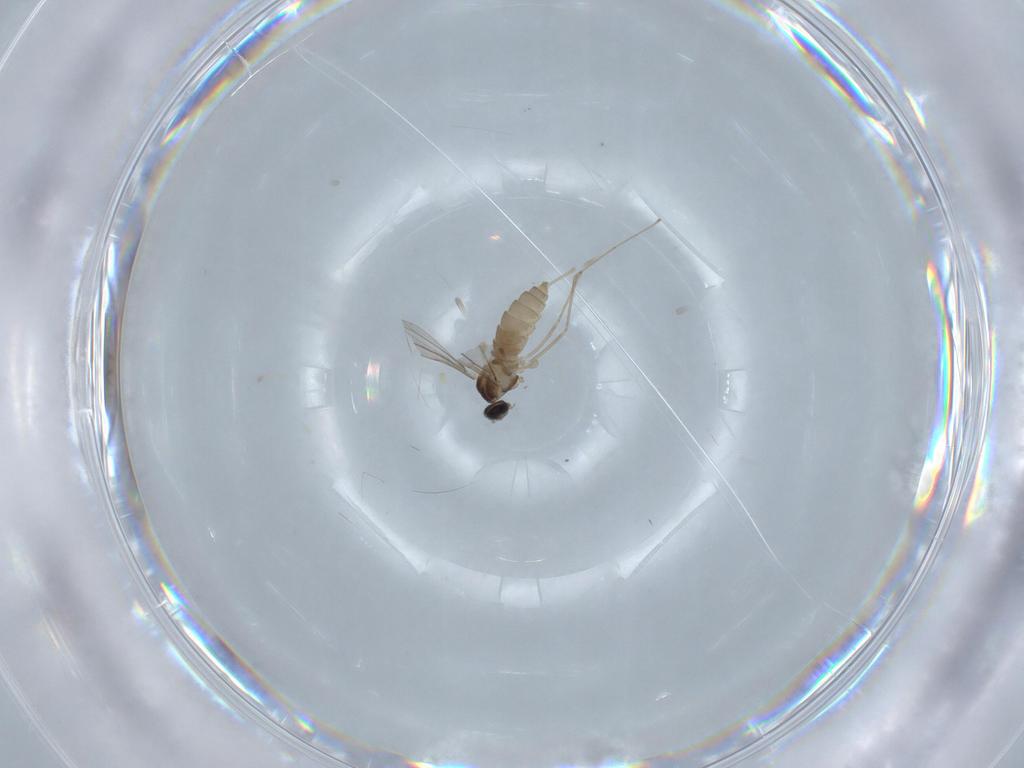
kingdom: Animalia
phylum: Arthropoda
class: Insecta
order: Diptera
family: Cecidomyiidae
